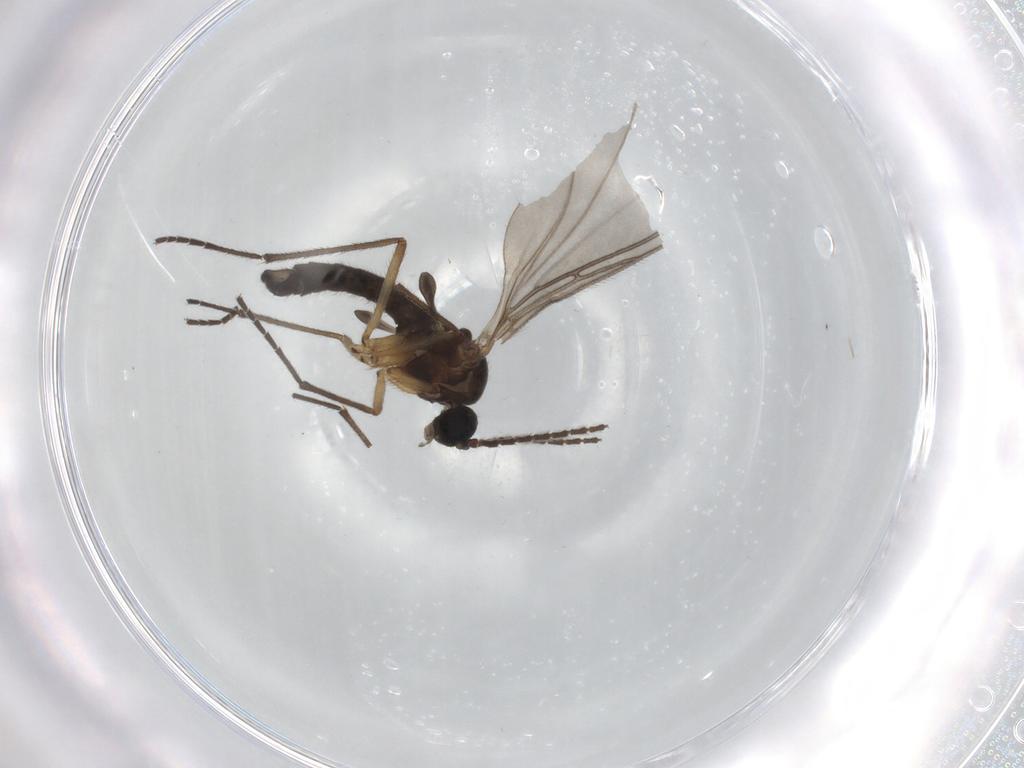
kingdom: Animalia
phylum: Arthropoda
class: Insecta
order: Diptera
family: Sciaridae
